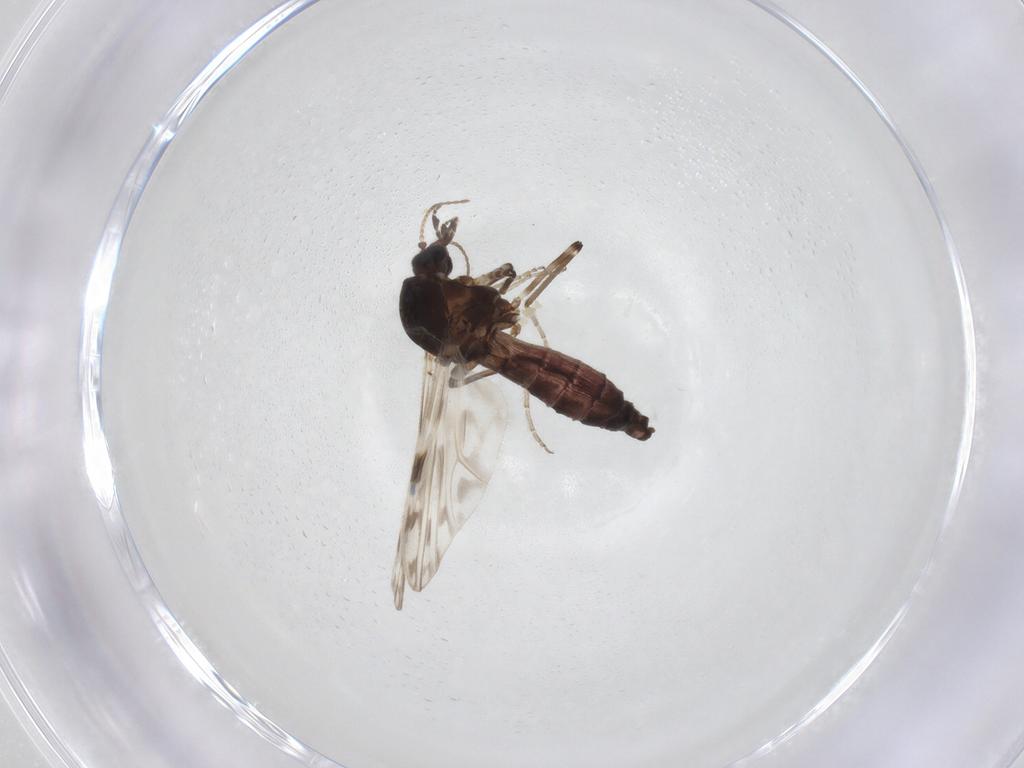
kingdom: Animalia
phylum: Arthropoda
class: Insecta
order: Diptera
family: Ceratopogonidae
